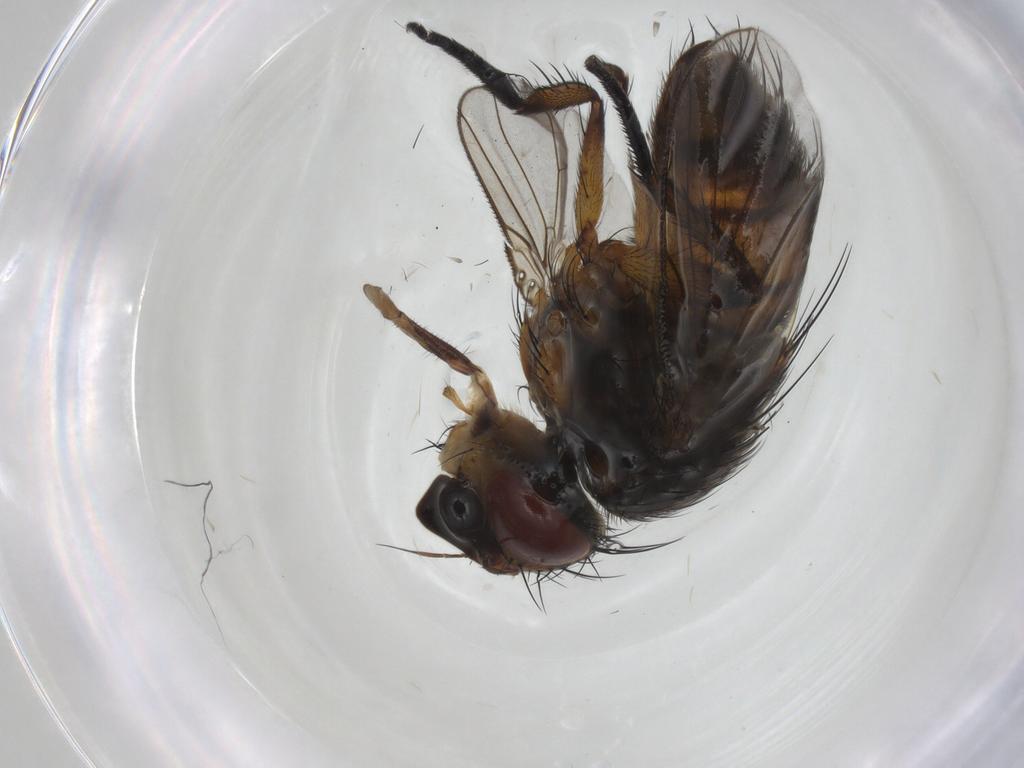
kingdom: Animalia
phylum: Arthropoda
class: Insecta
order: Diptera
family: Tachinidae
